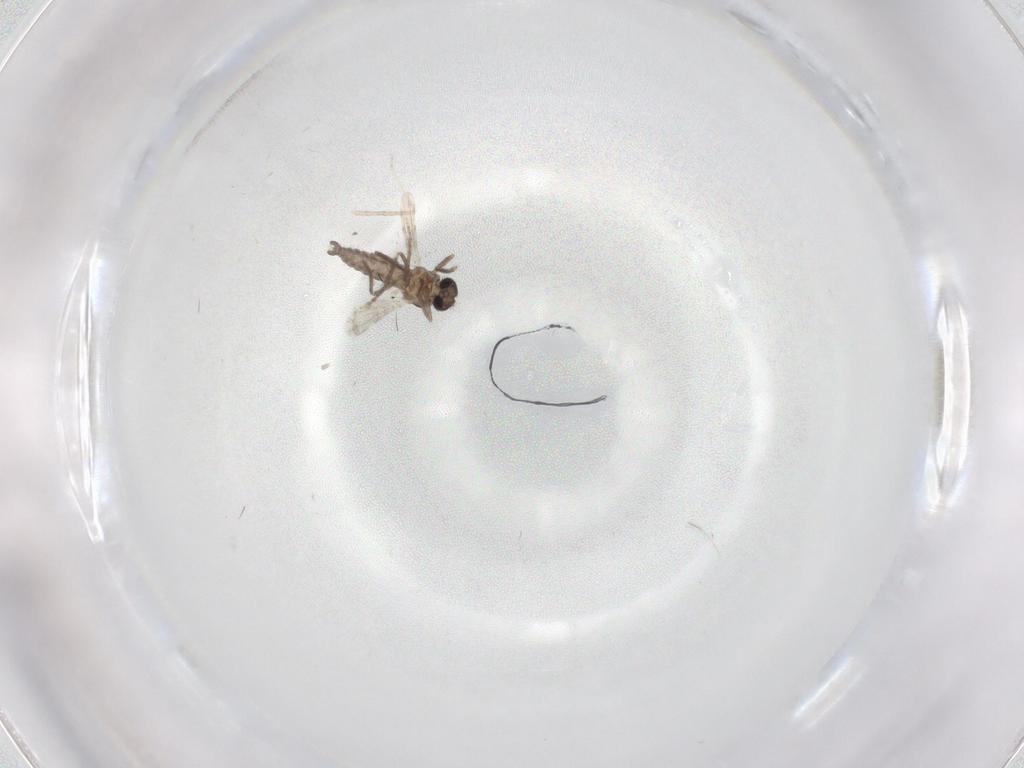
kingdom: Animalia
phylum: Arthropoda
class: Insecta
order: Diptera
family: Ceratopogonidae
